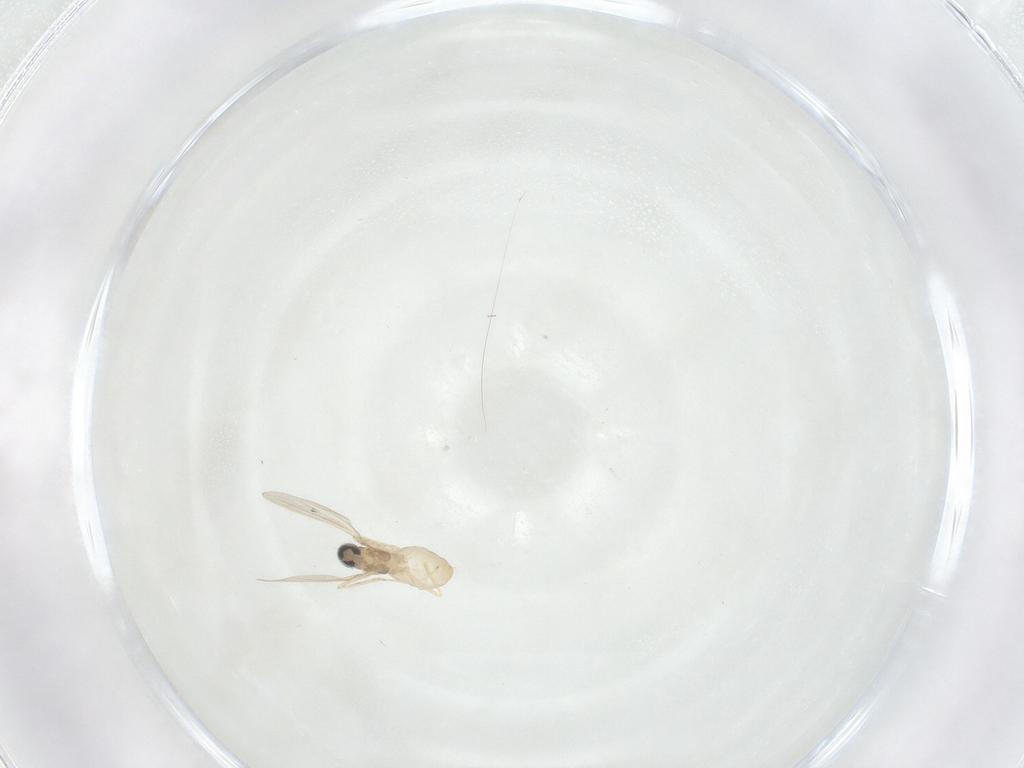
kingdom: Animalia
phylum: Arthropoda
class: Insecta
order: Diptera
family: Cecidomyiidae
